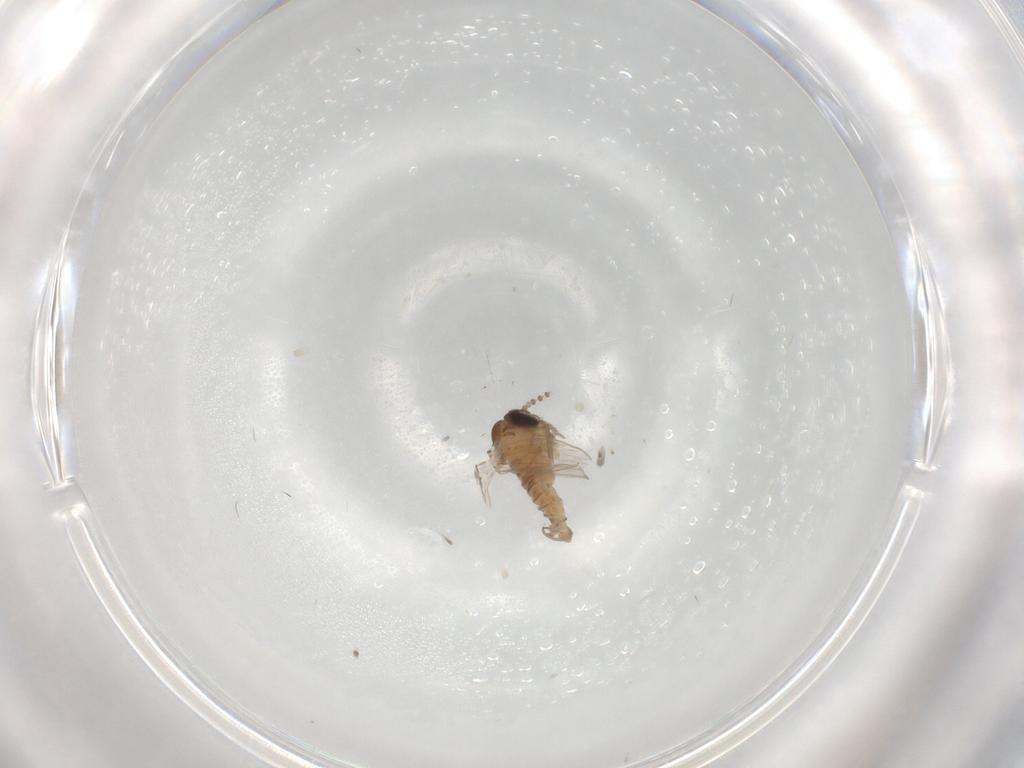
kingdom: Animalia
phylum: Arthropoda
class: Insecta
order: Diptera
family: Psychodidae
